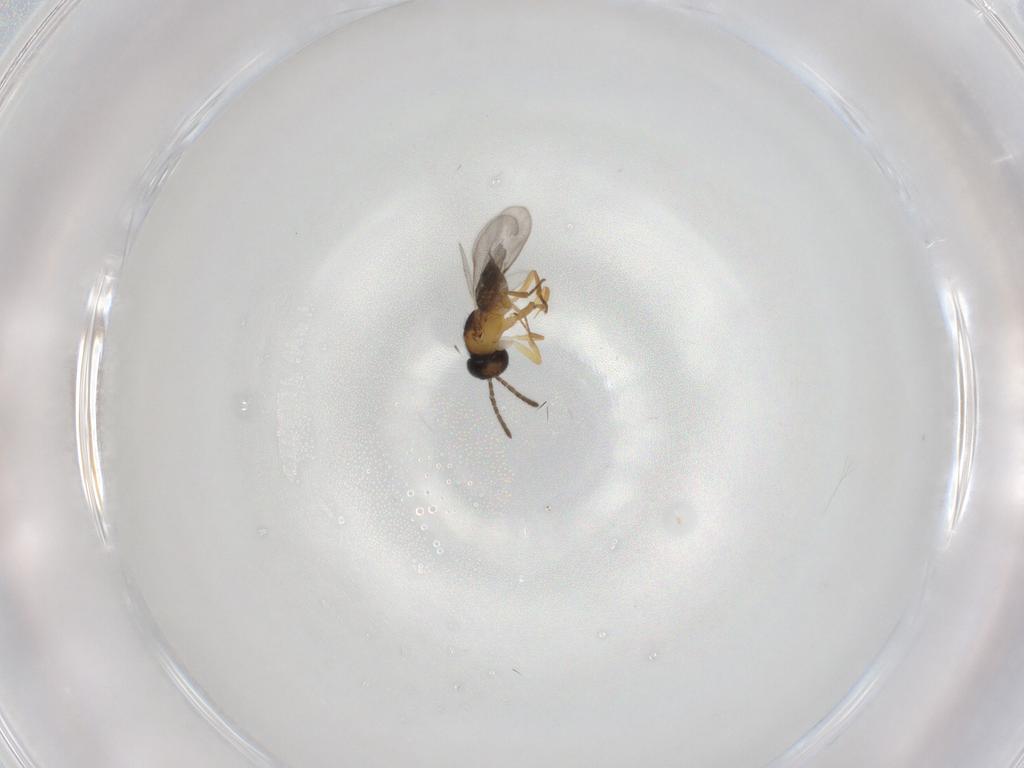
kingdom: Animalia
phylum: Arthropoda
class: Insecta
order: Hymenoptera
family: Encyrtidae
